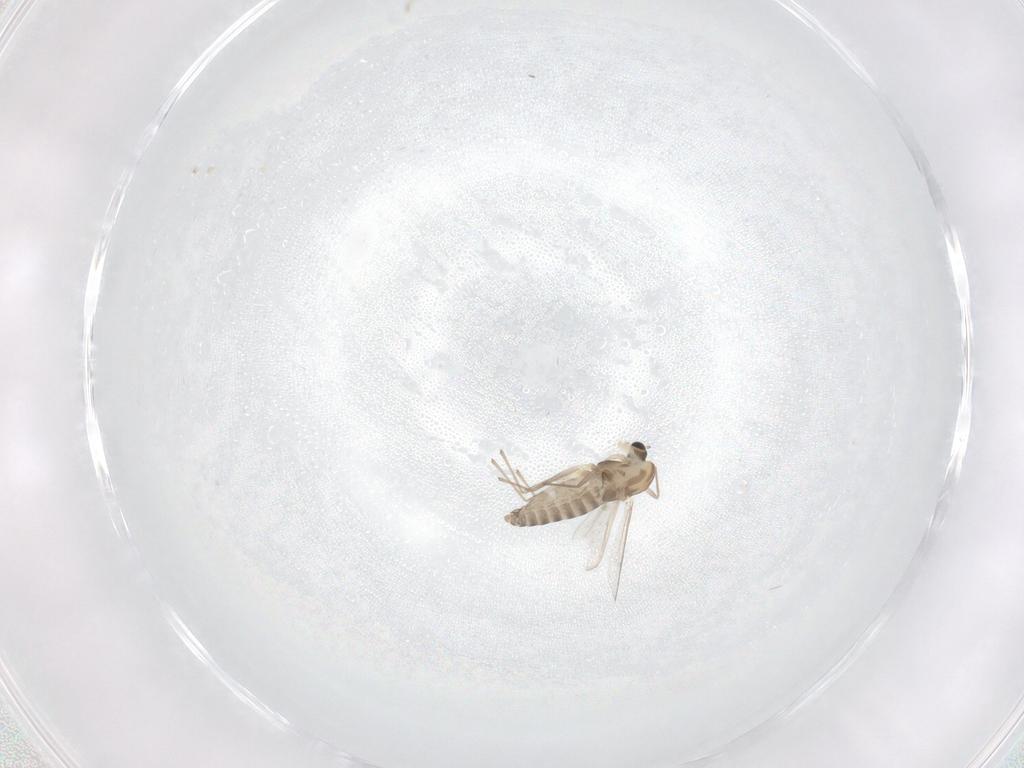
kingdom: Animalia
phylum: Arthropoda
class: Insecta
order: Diptera
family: Chironomidae
